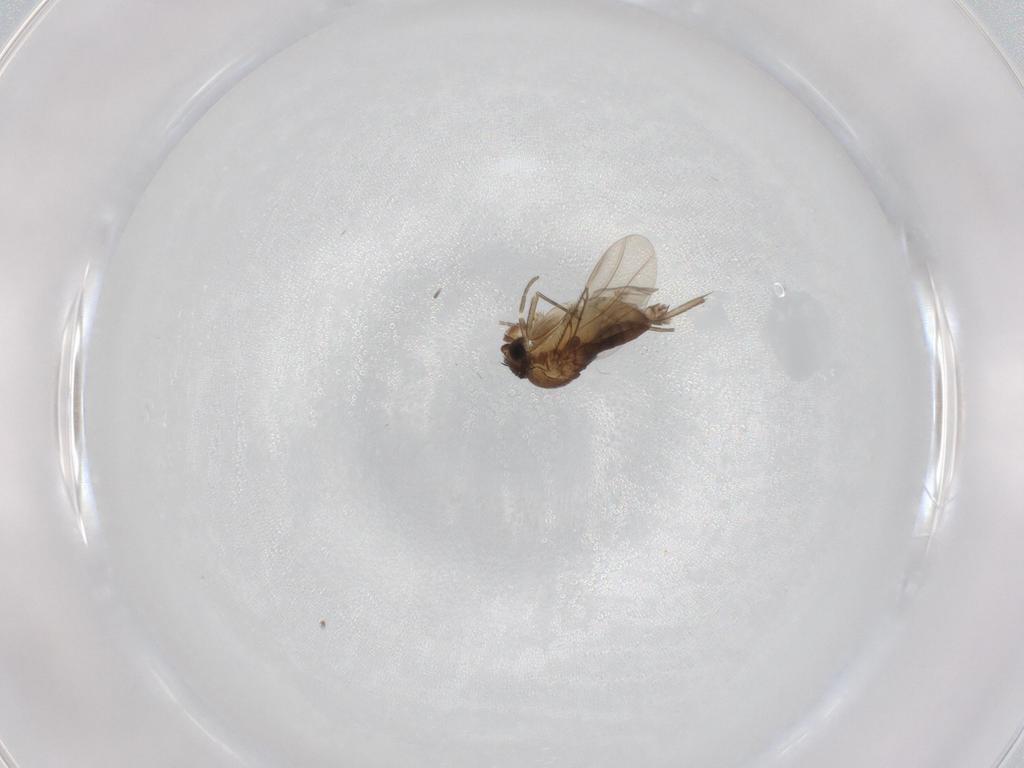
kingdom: Animalia
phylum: Arthropoda
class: Insecta
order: Diptera
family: Phoridae
